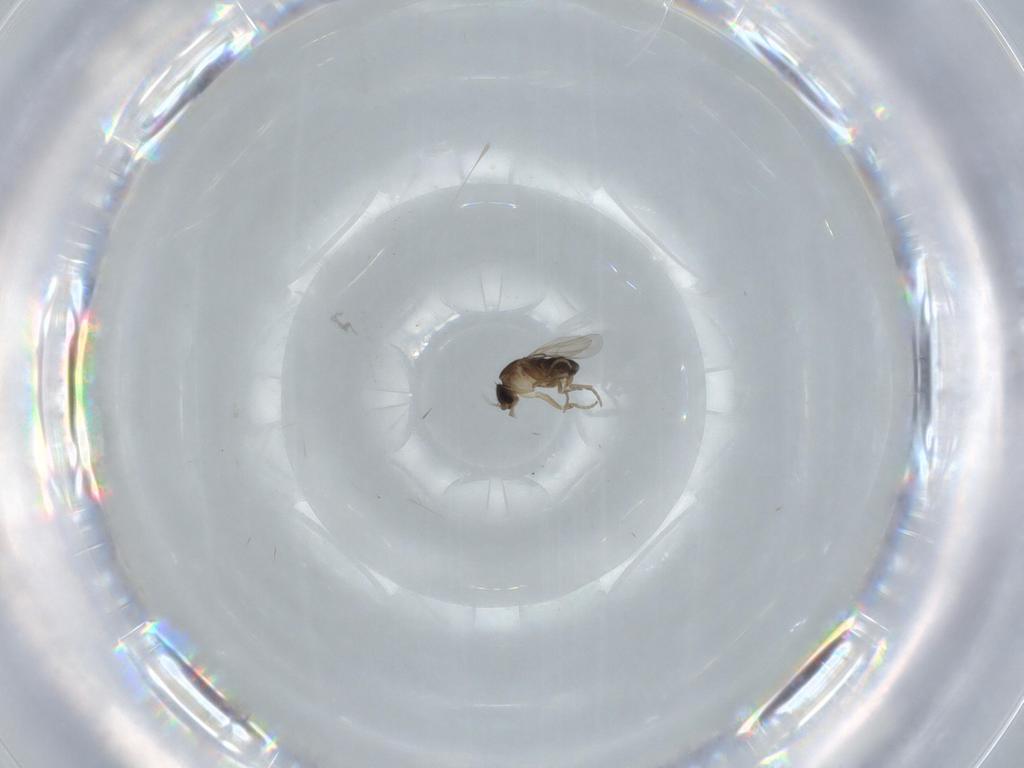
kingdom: Animalia
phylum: Arthropoda
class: Insecta
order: Diptera
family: Phoridae
